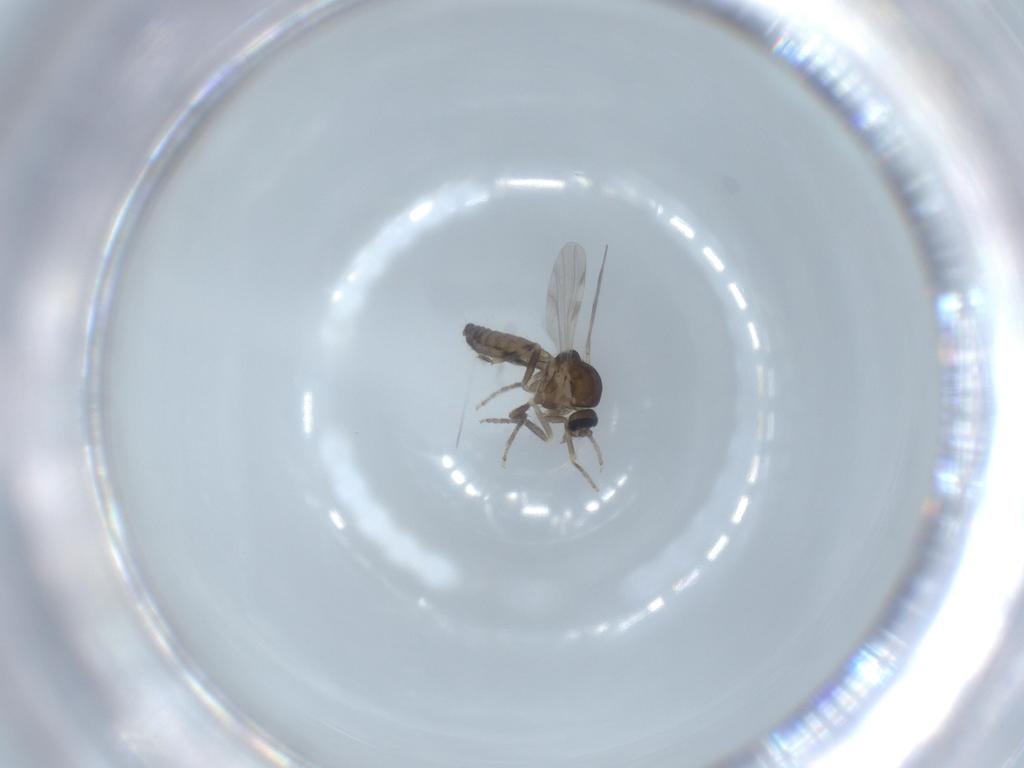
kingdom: Animalia
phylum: Arthropoda
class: Insecta
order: Diptera
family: Ceratopogonidae
